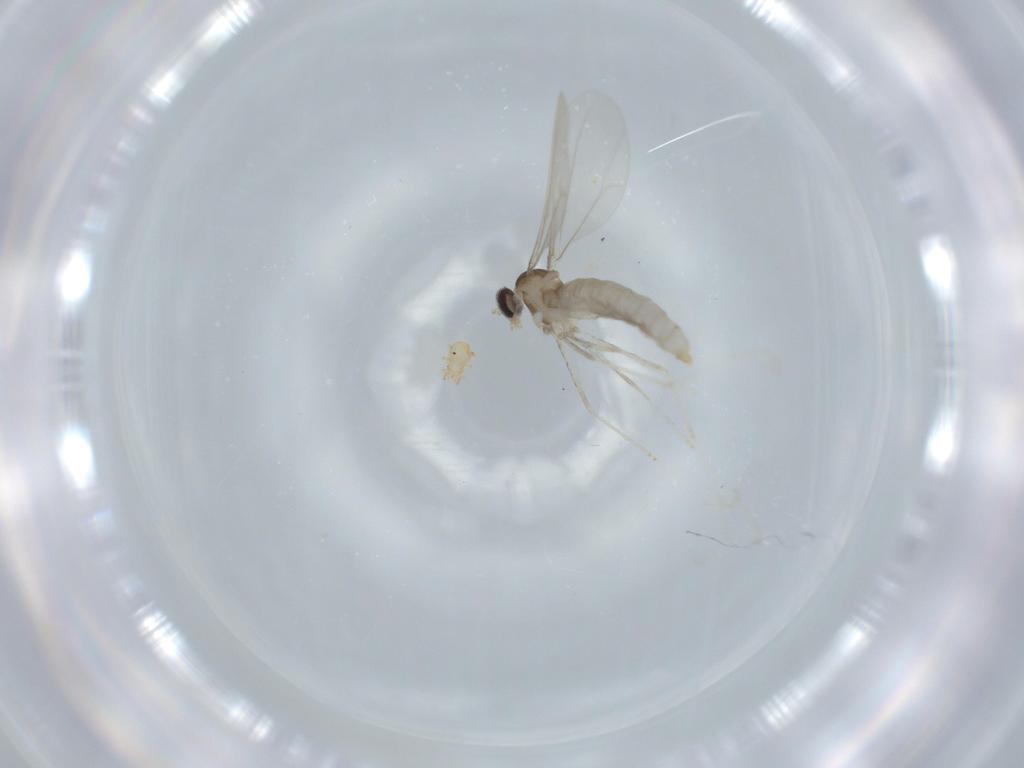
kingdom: Animalia
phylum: Arthropoda
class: Insecta
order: Diptera
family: Cecidomyiidae
